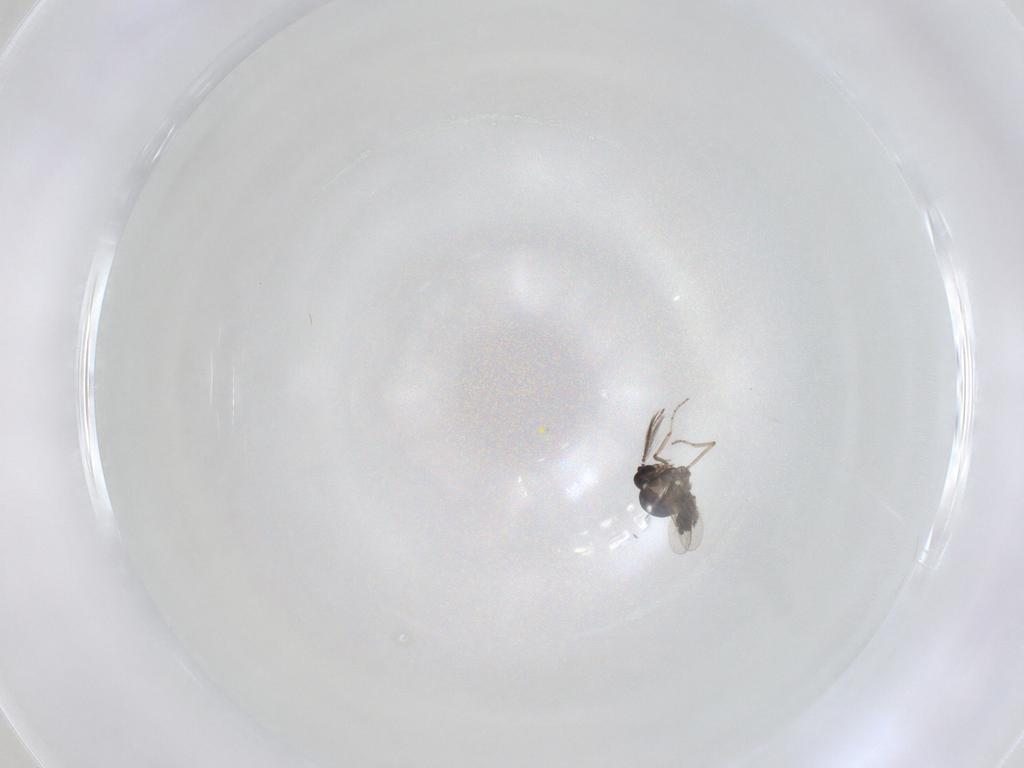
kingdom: Animalia
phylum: Arthropoda
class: Insecta
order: Diptera
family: Ceratopogonidae
